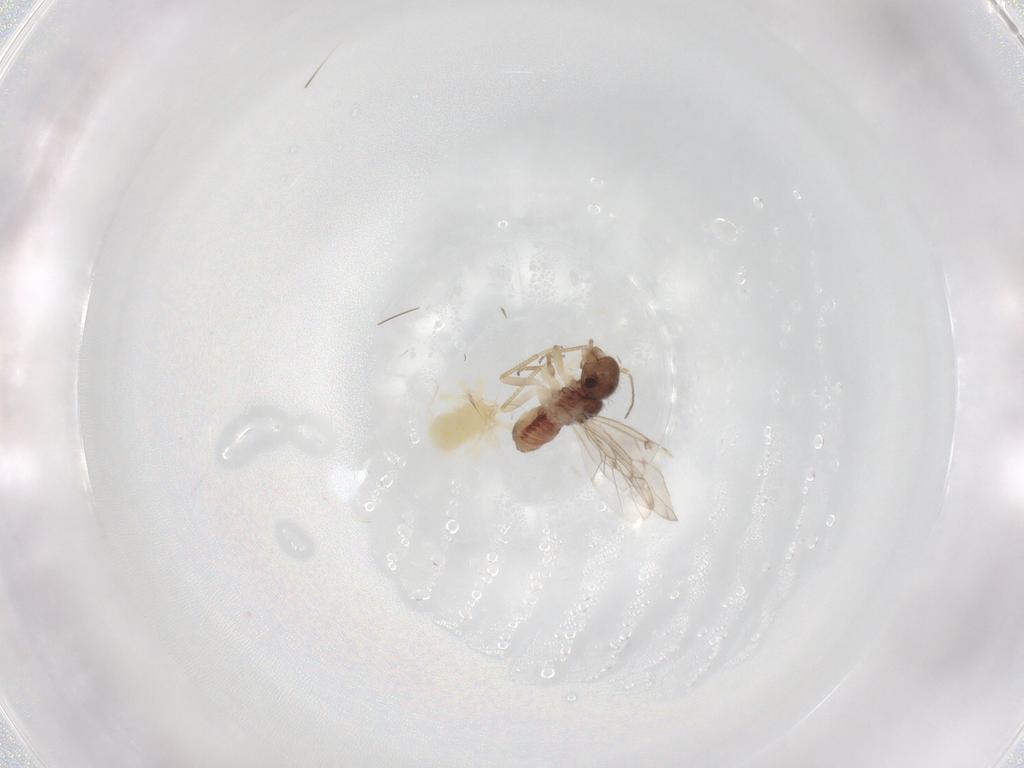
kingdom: Animalia
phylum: Arthropoda
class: Insecta
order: Psocodea
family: Peripsocidae
